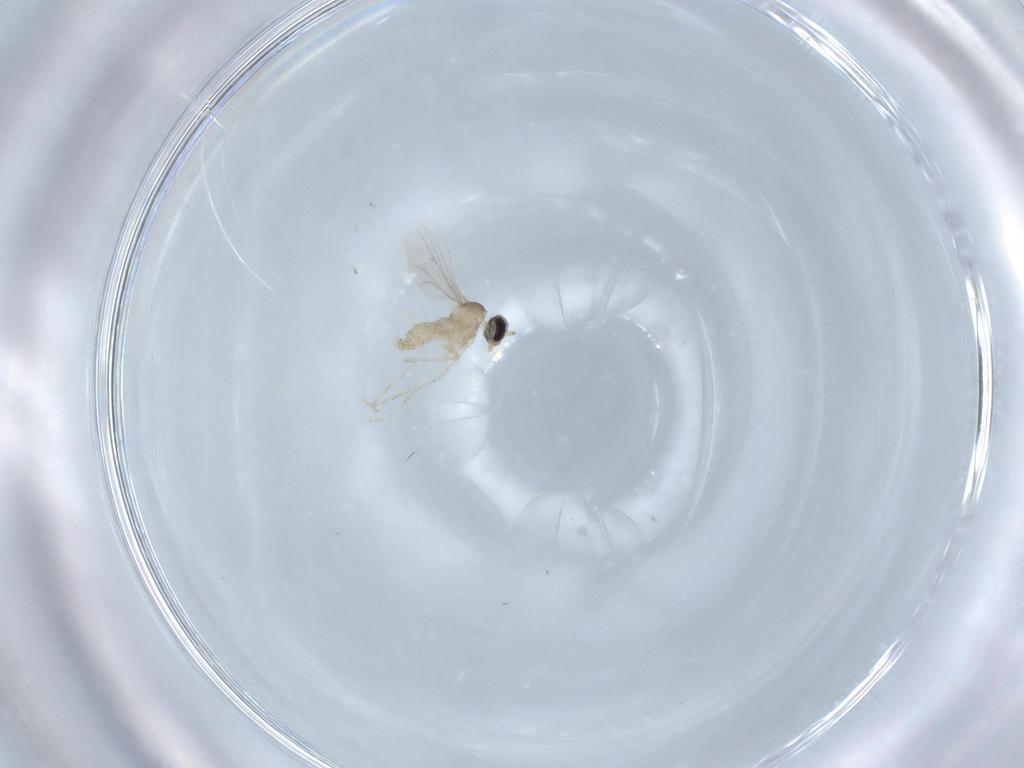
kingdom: Animalia
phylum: Arthropoda
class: Insecta
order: Diptera
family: Cecidomyiidae
